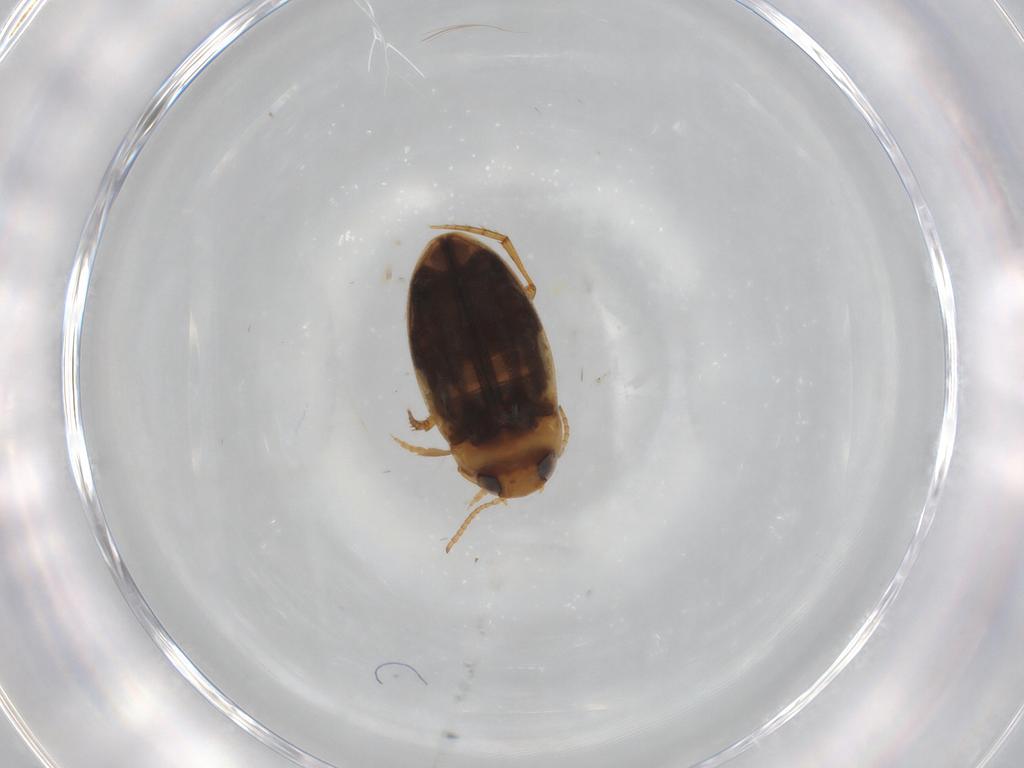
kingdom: Animalia
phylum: Arthropoda
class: Insecta
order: Coleoptera
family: Dytiscidae
